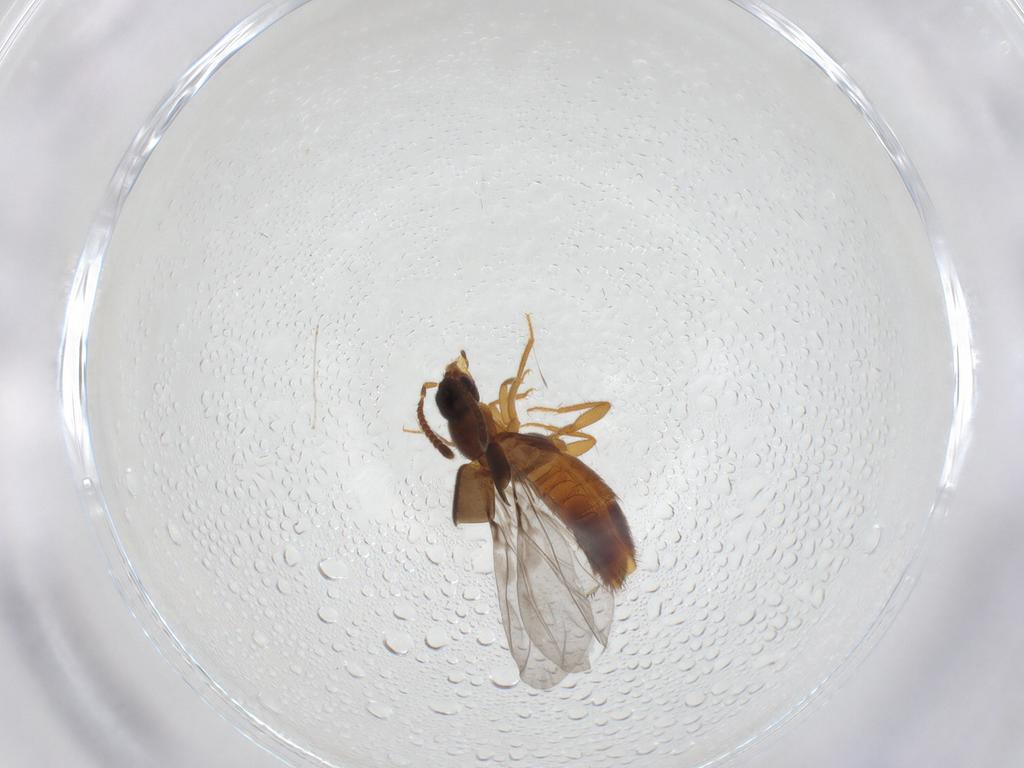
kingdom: Animalia
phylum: Arthropoda
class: Insecta
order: Coleoptera
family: Staphylinidae
